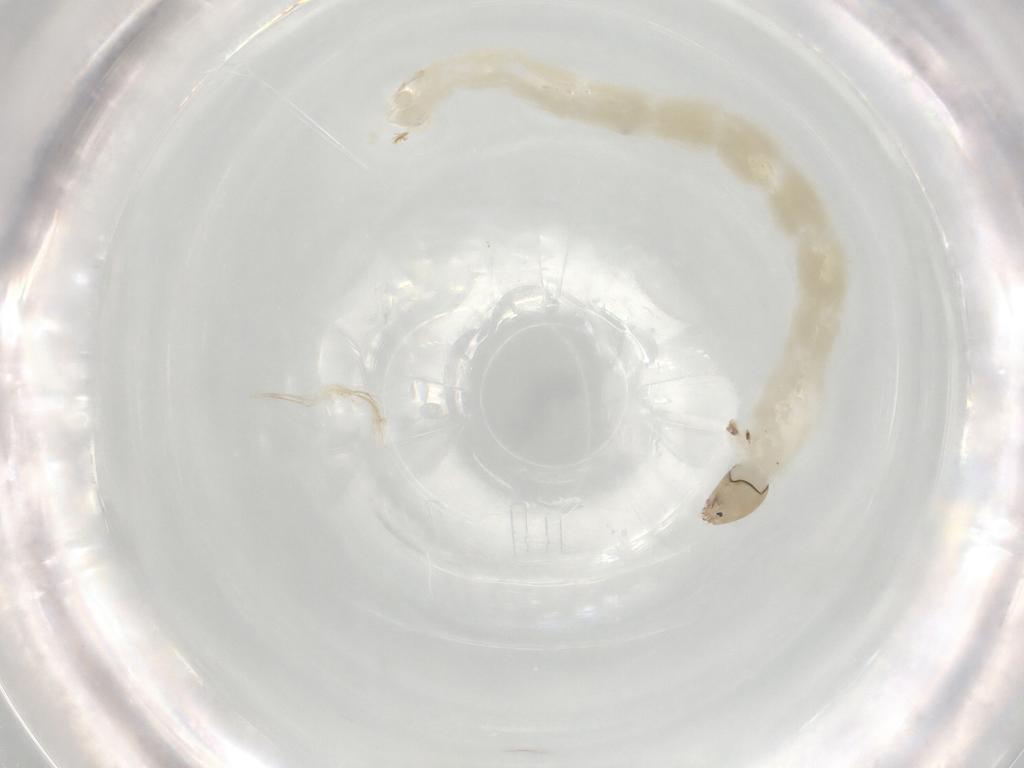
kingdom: Animalia
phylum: Arthropoda
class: Insecta
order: Diptera
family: Chironomidae
